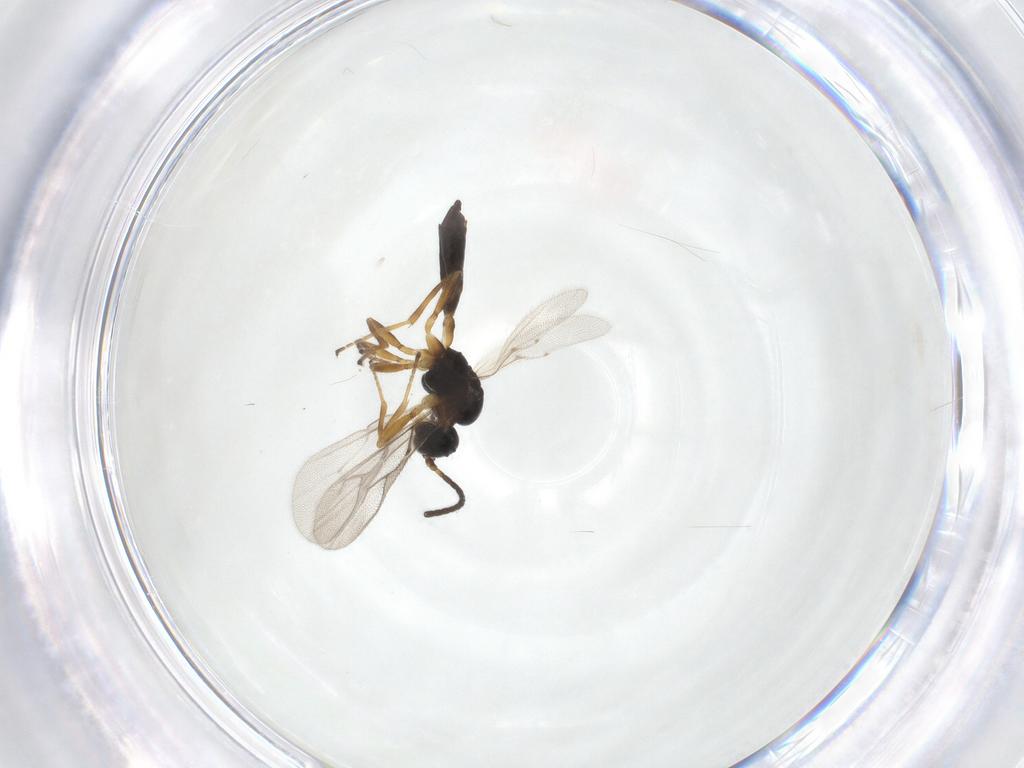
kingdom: Animalia
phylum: Arthropoda
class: Insecta
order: Hymenoptera
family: Braconidae
